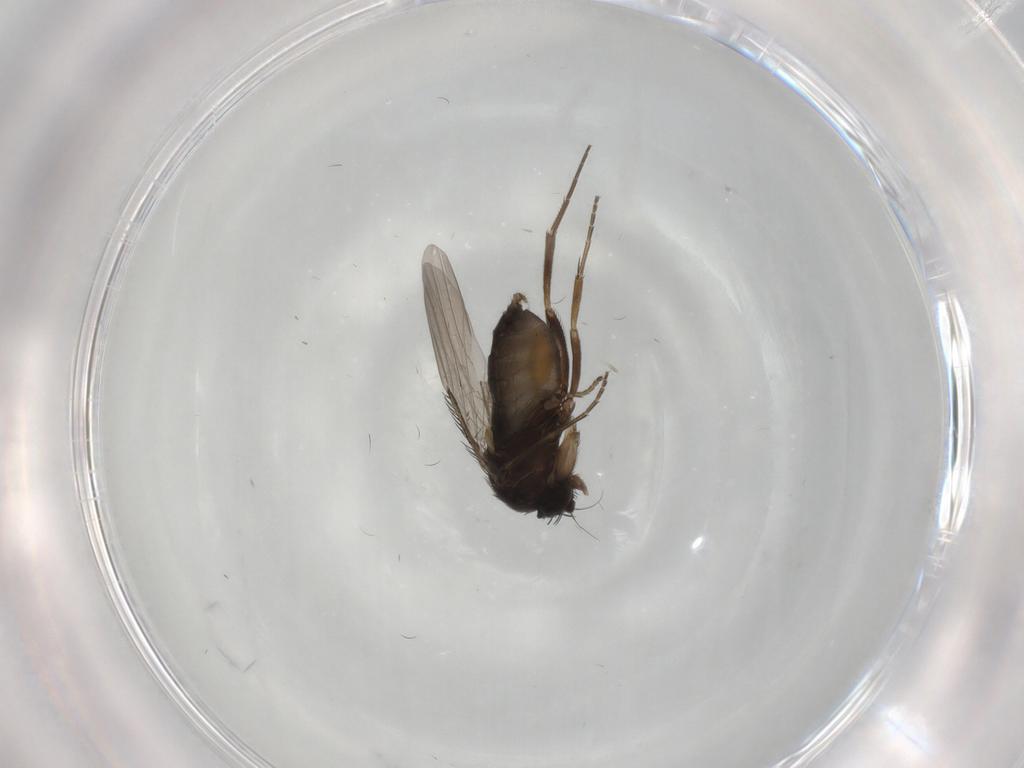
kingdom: Animalia
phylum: Arthropoda
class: Insecta
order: Diptera
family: Phoridae
